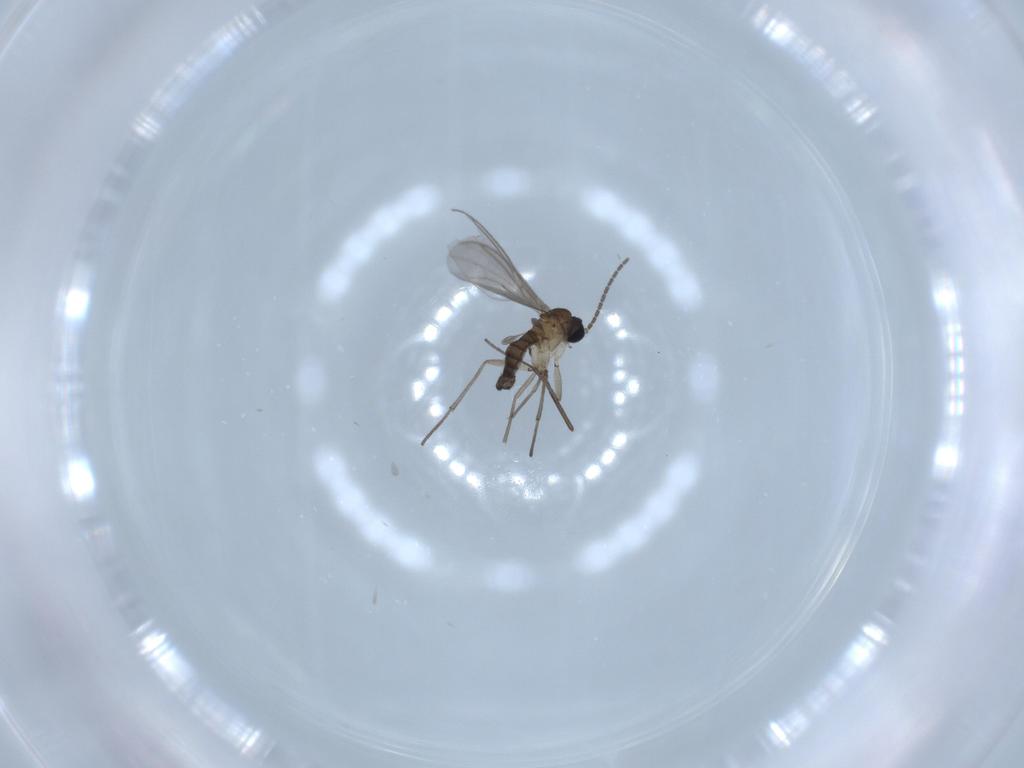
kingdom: Animalia
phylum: Arthropoda
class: Insecta
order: Diptera
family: Sciaridae
